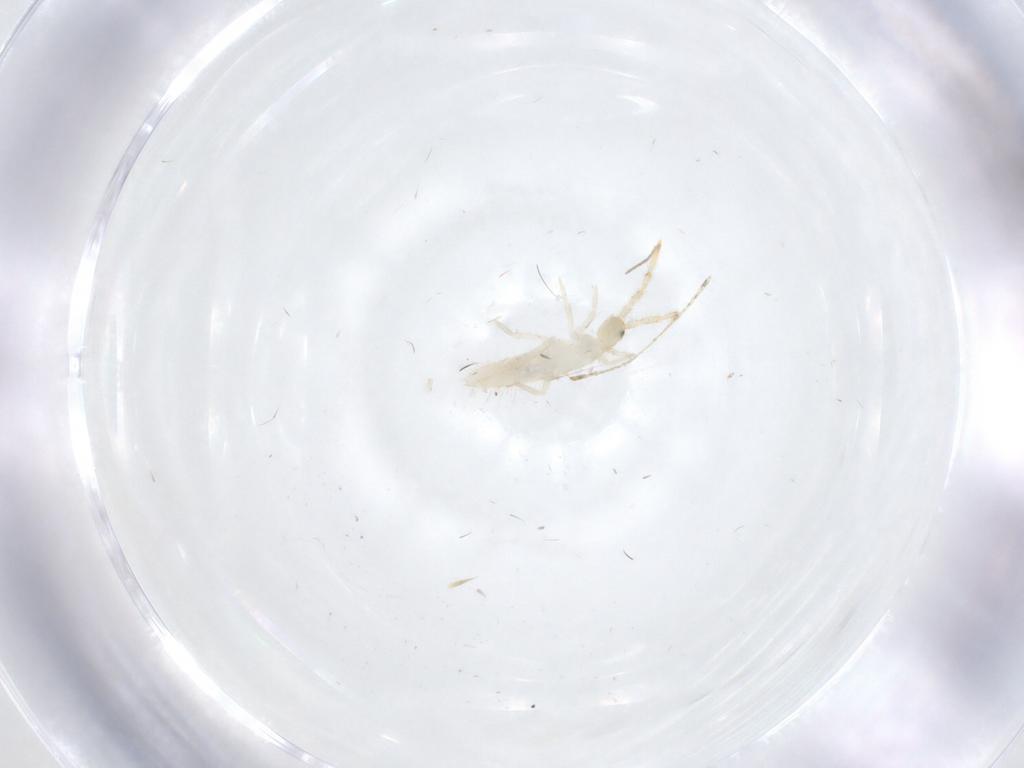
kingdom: Animalia
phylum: Arthropoda
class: Collembola
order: Entomobryomorpha
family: Entomobryidae
